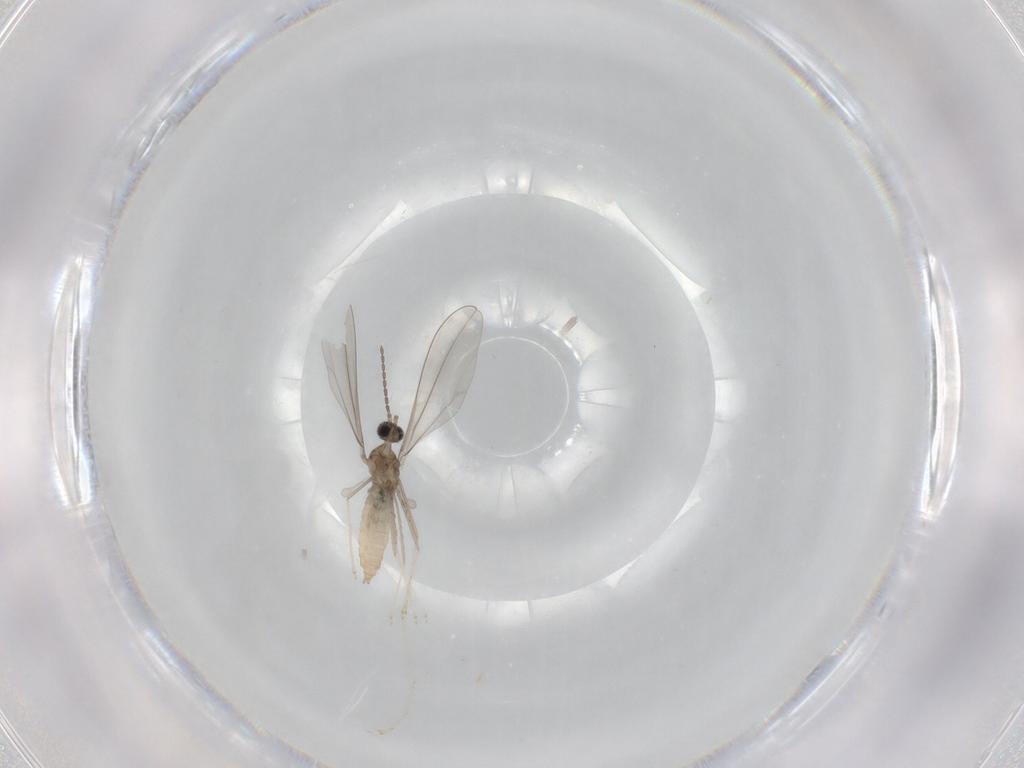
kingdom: Animalia
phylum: Arthropoda
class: Insecta
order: Diptera
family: Cecidomyiidae
